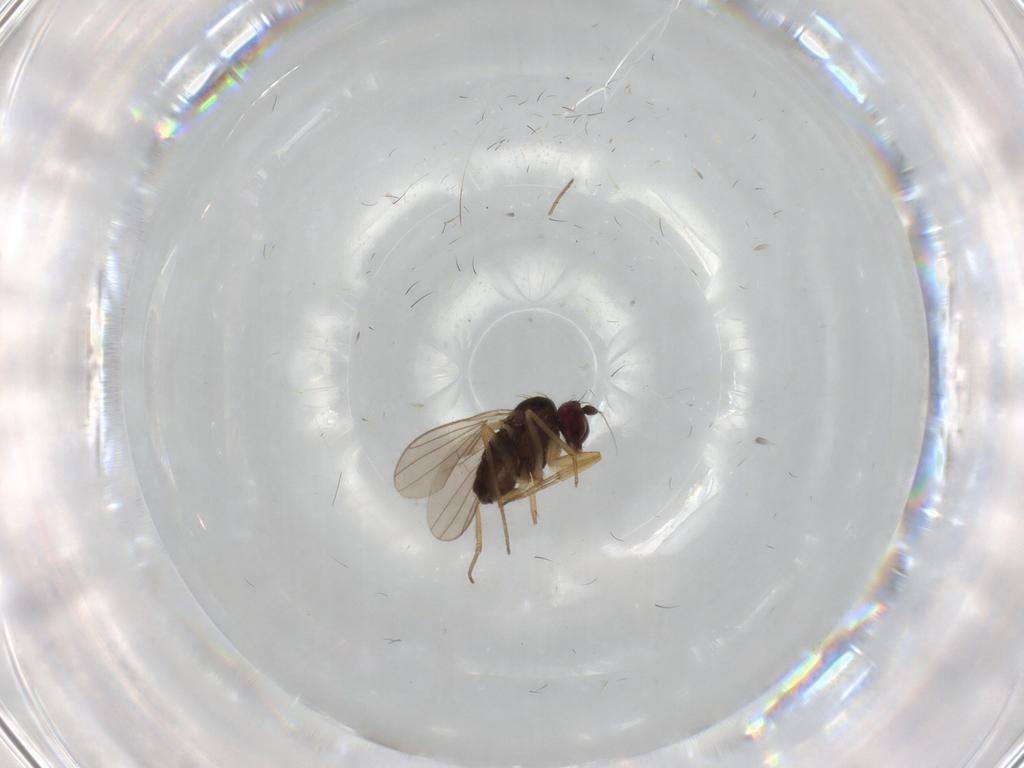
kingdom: Animalia
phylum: Arthropoda
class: Insecta
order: Diptera
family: Dolichopodidae
